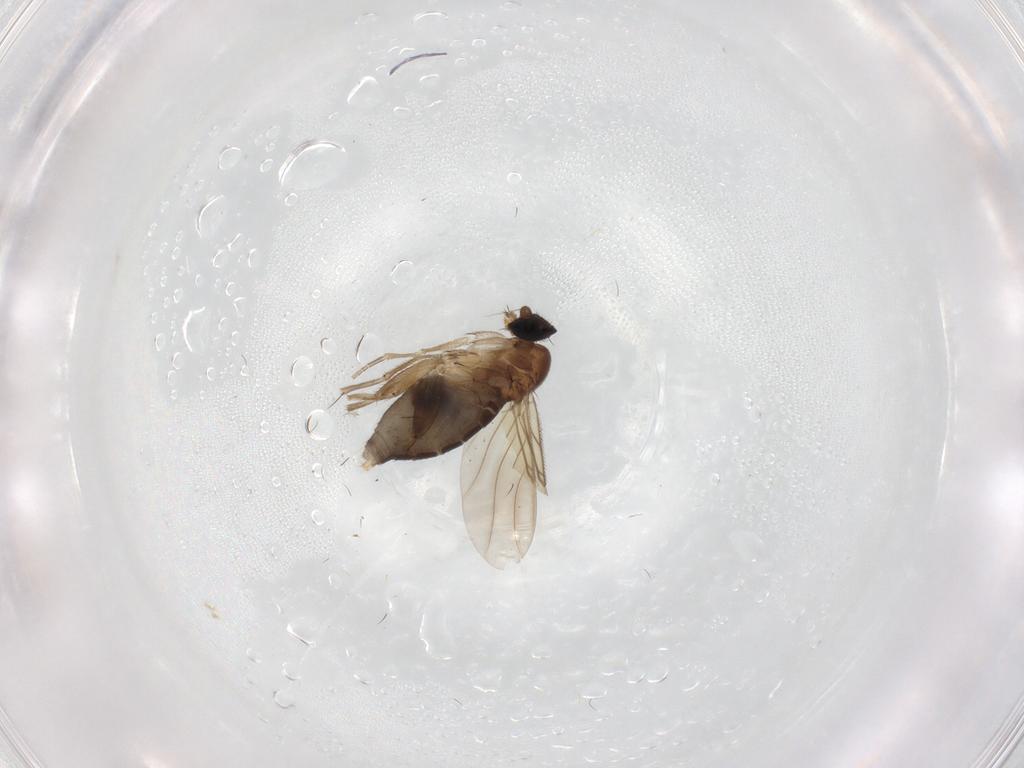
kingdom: Animalia
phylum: Arthropoda
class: Insecta
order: Diptera
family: Phoridae
